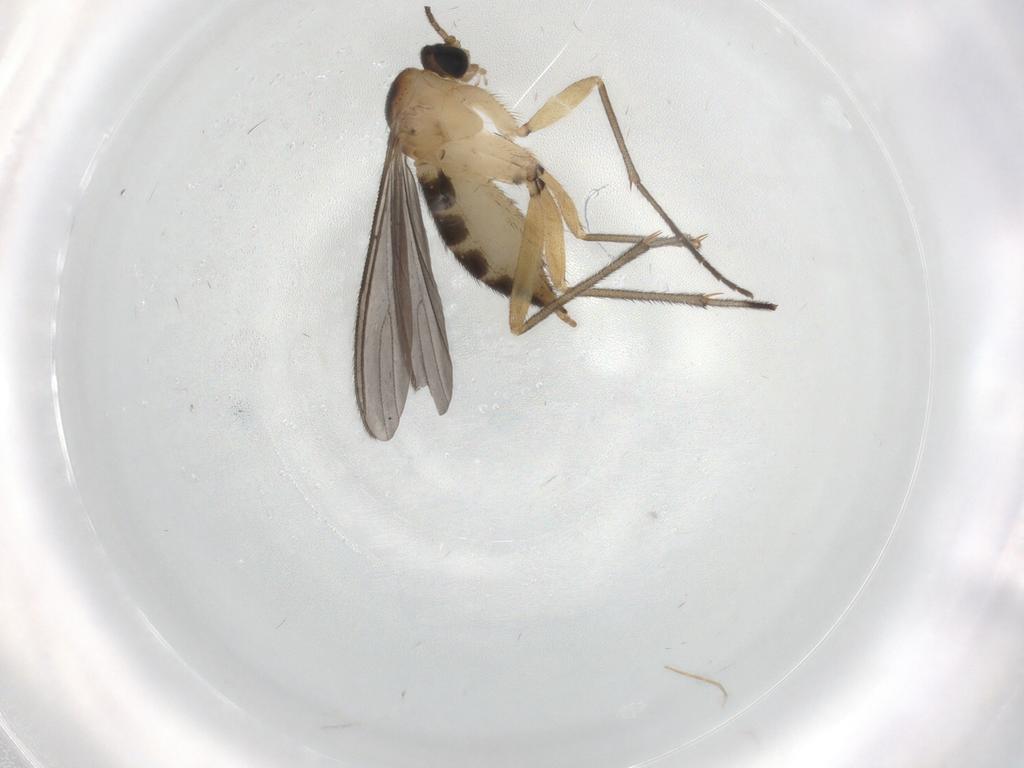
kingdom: Animalia
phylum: Arthropoda
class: Insecta
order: Diptera
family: Sciaridae
